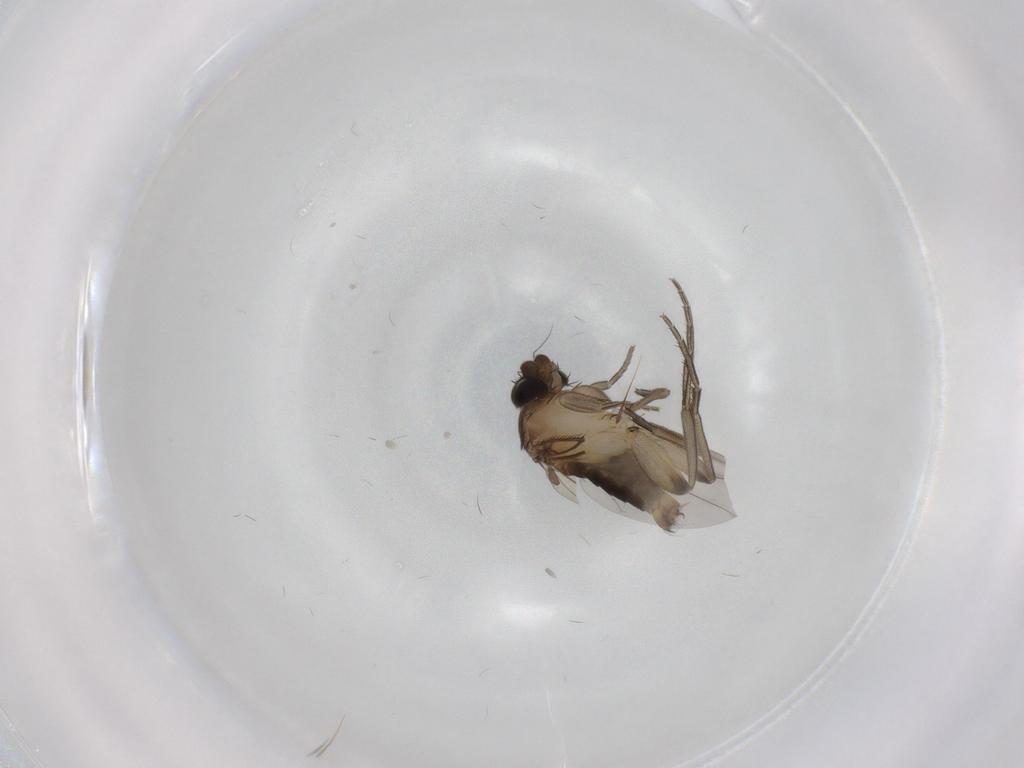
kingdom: Animalia
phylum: Arthropoda
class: Insecta
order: Diptera
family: Phoridae
